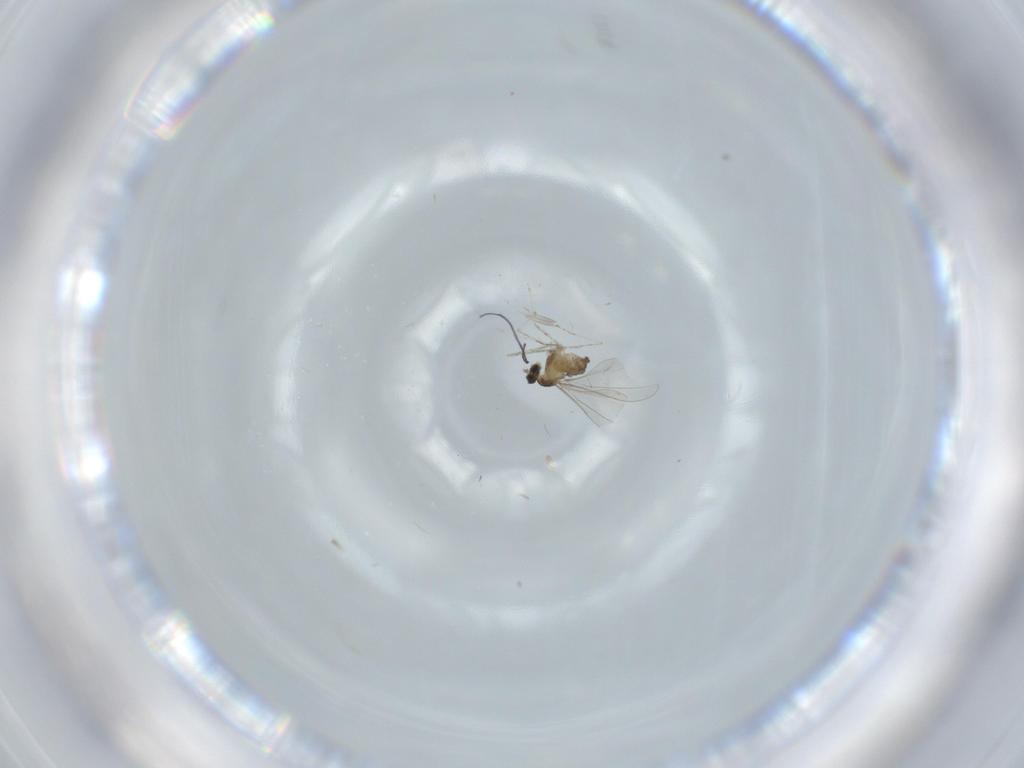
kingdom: Animalia
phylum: Arthropoda
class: Insecta
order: Diptera
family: Cecidomyiidae
